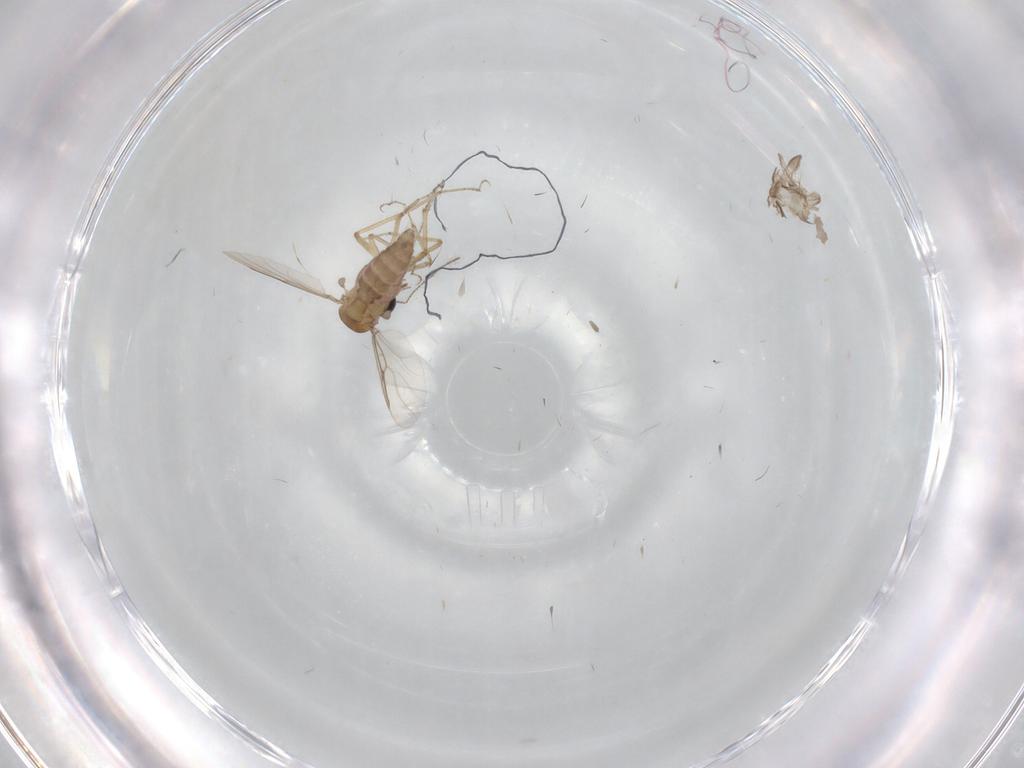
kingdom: Animalia
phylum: Arthropoda
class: Insecta
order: Diptera
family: Ceratopogonidae
